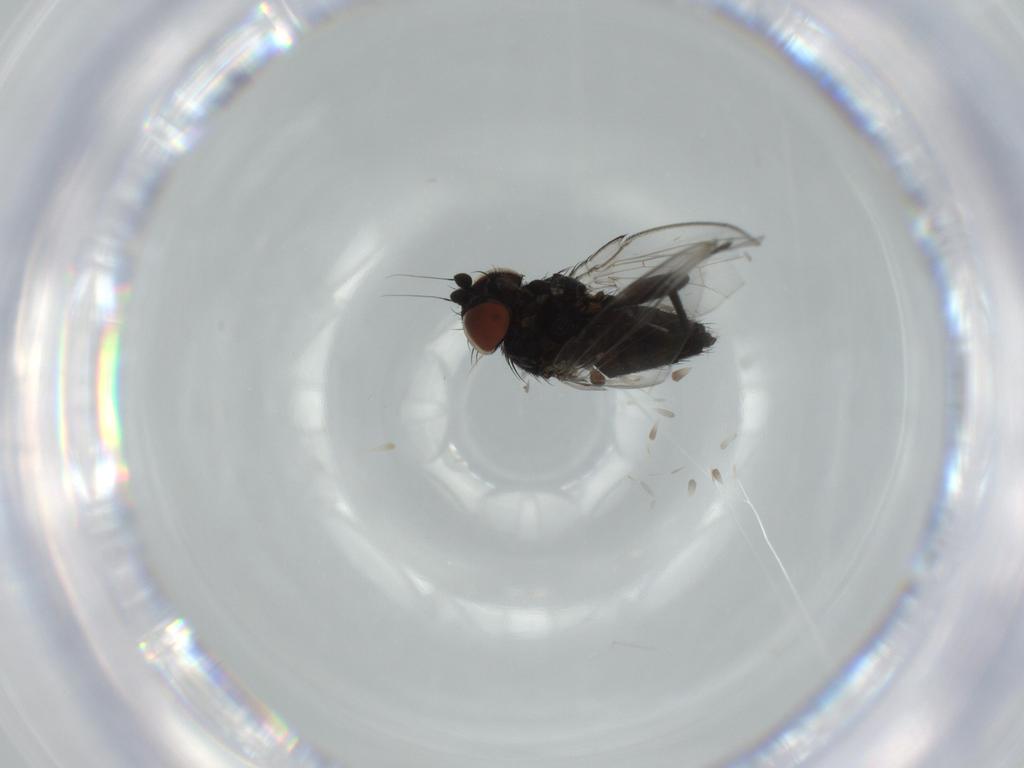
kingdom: Animalia
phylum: Arthropoda
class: Insecta
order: Diptera
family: Milichiidae
